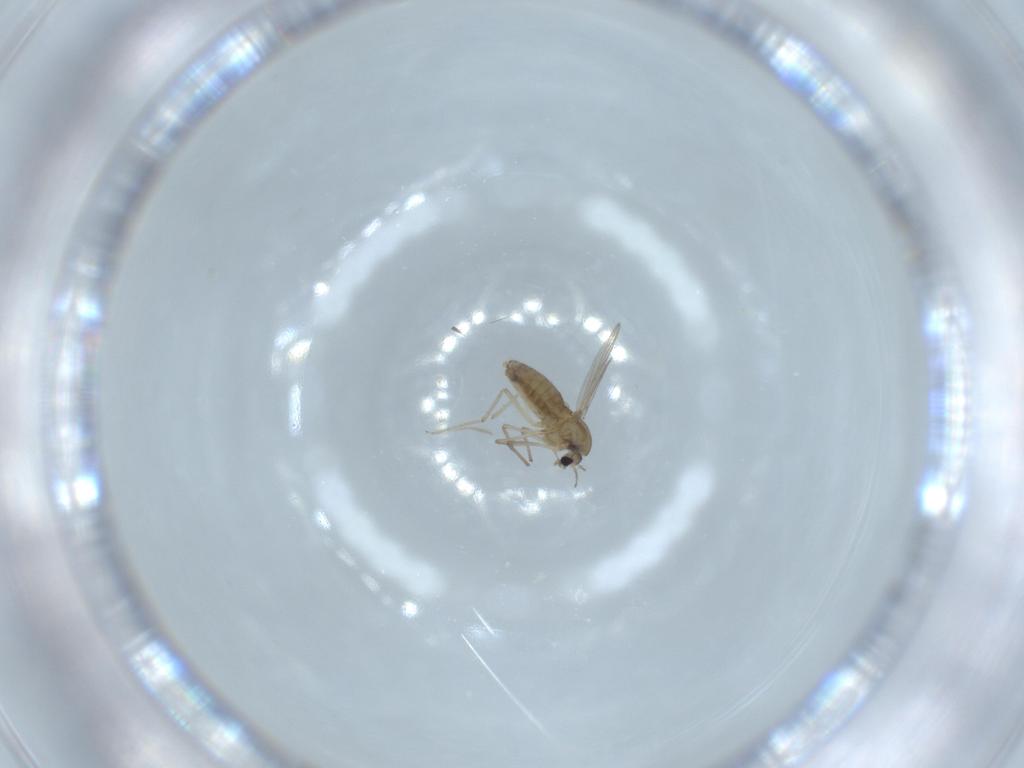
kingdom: Animalia
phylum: Arthropoda
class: Insecta
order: Diptera
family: Chironomidae
